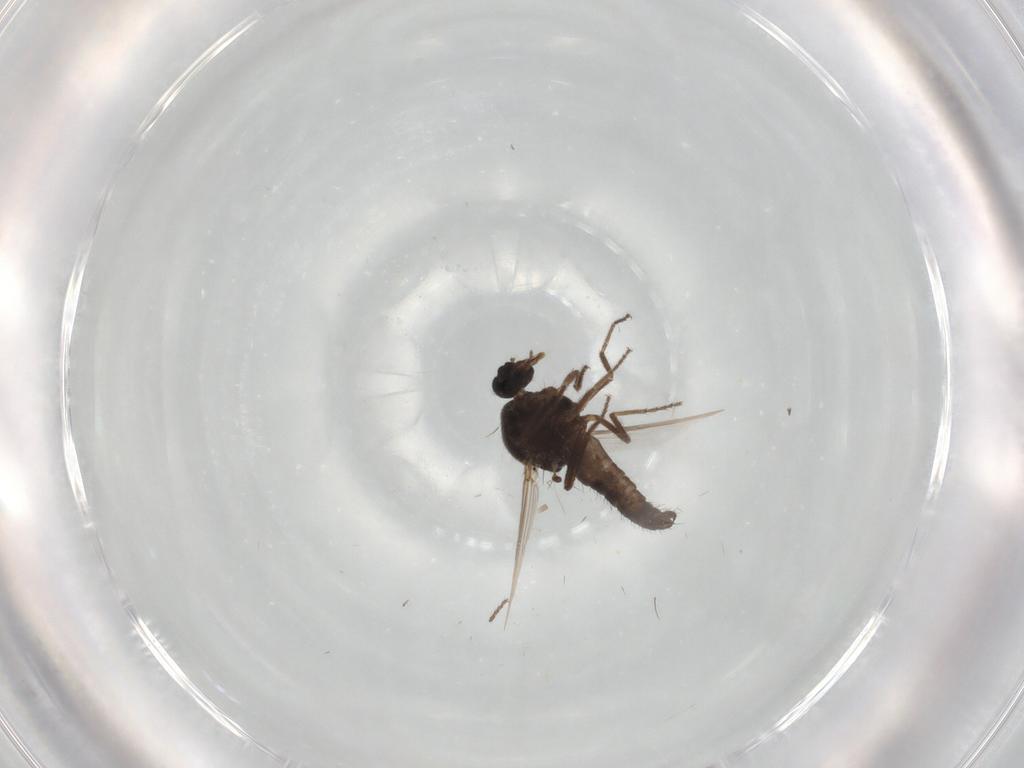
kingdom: Animalia
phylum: Arthropoda
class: Insecta
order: Diptera
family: Ceratopogonidae
